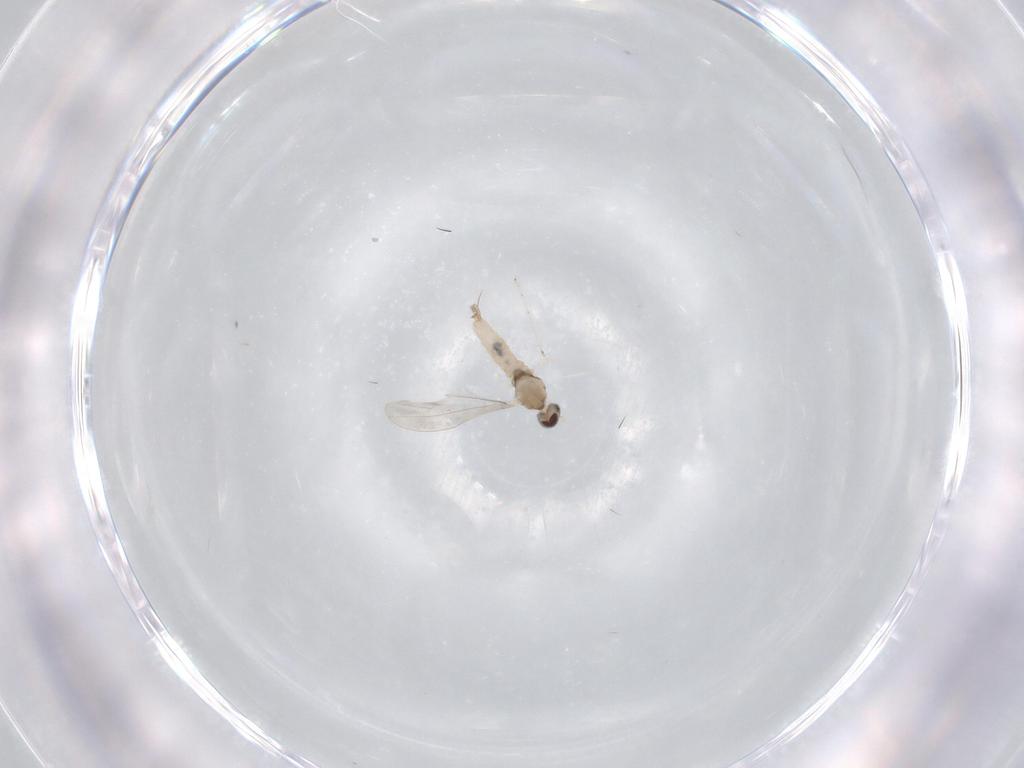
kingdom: Animalia
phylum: Arthropoda
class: Insecta
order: Diptera
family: Cecidomyiidae
